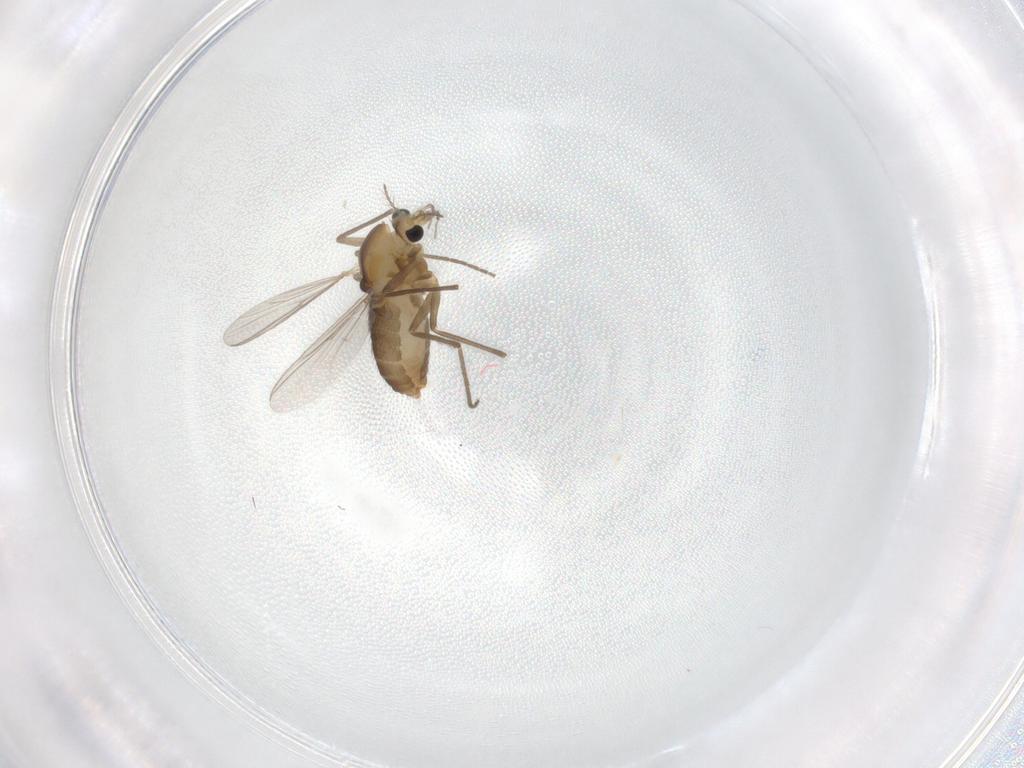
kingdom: Animalia
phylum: Arthropoda
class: Insecta
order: Diptera
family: Chironomidae
